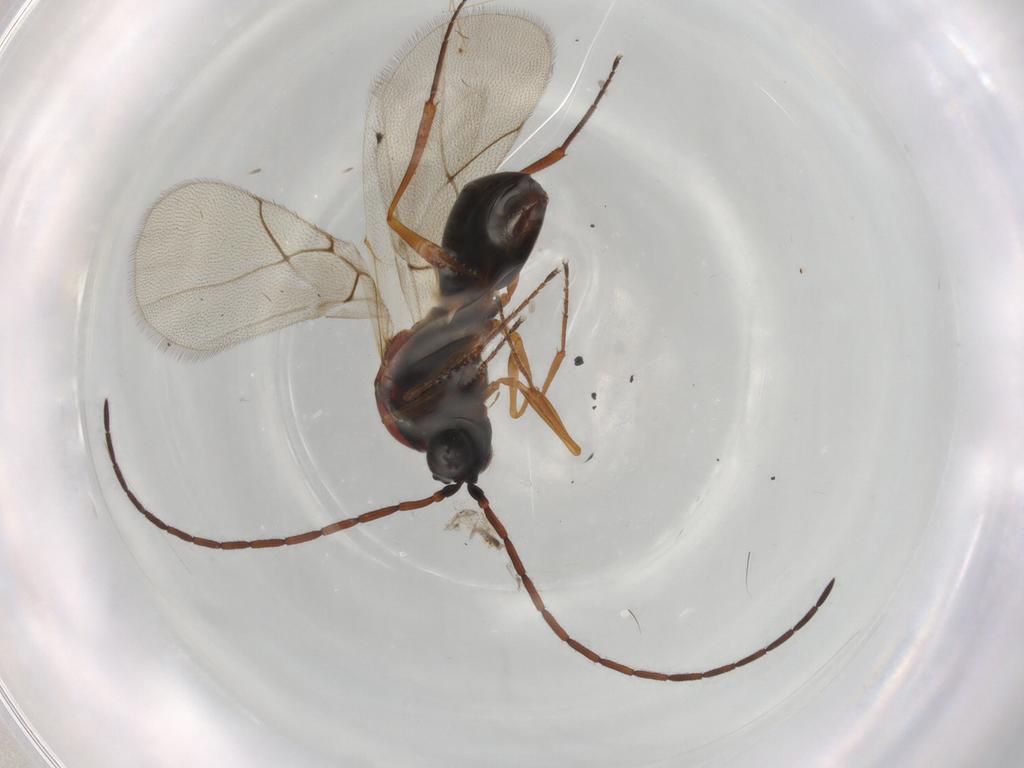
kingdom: Animalia
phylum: Arthropoda
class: Insecta
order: Hymenoptera
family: Figitidae
